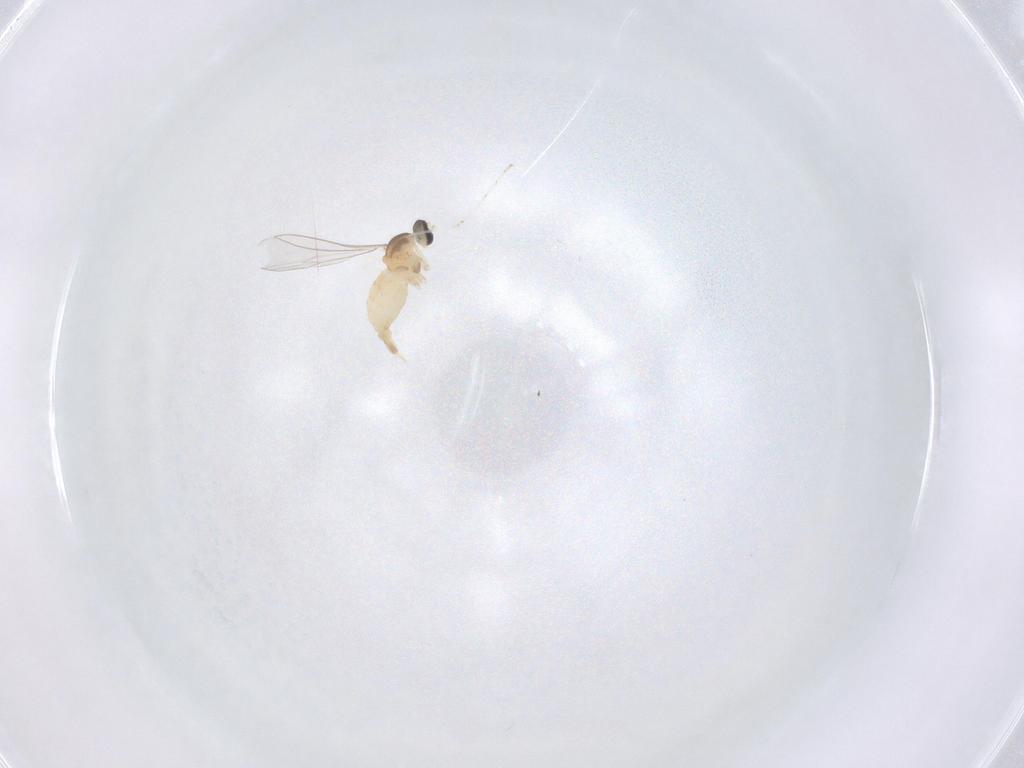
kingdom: Animalia
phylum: Arthropoda
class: Insecta
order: Diptera
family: Cecidomyiidae
